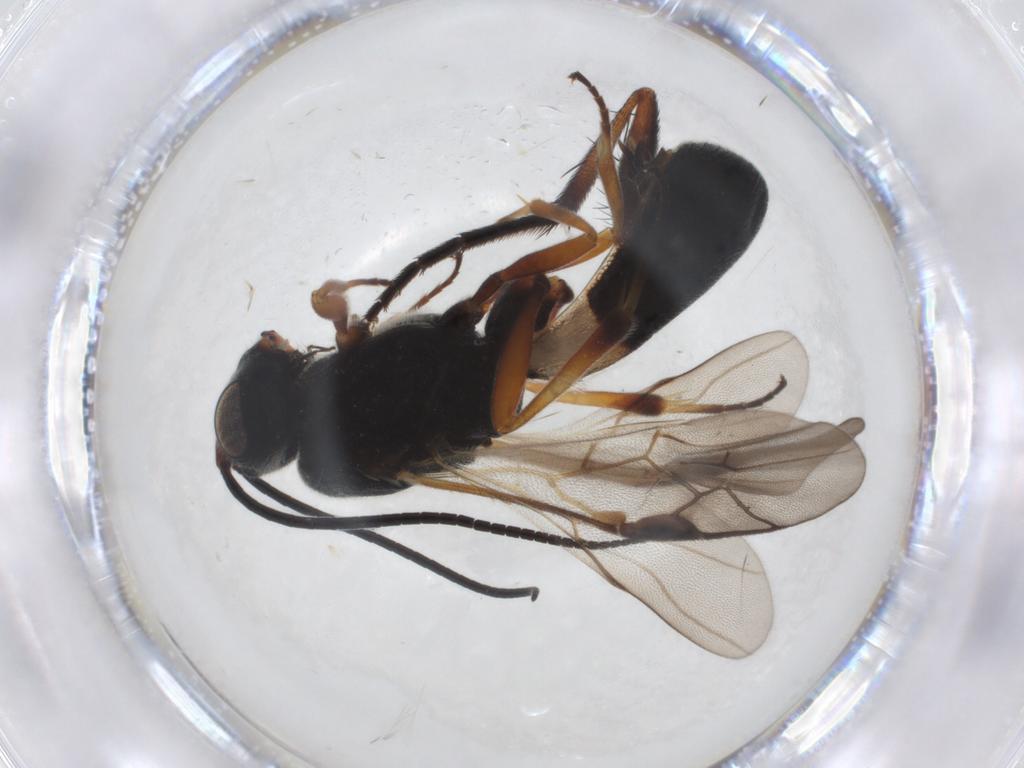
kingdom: Animalia
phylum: Arthropoda
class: Insecta
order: Hymenoptera
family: Braconidae
